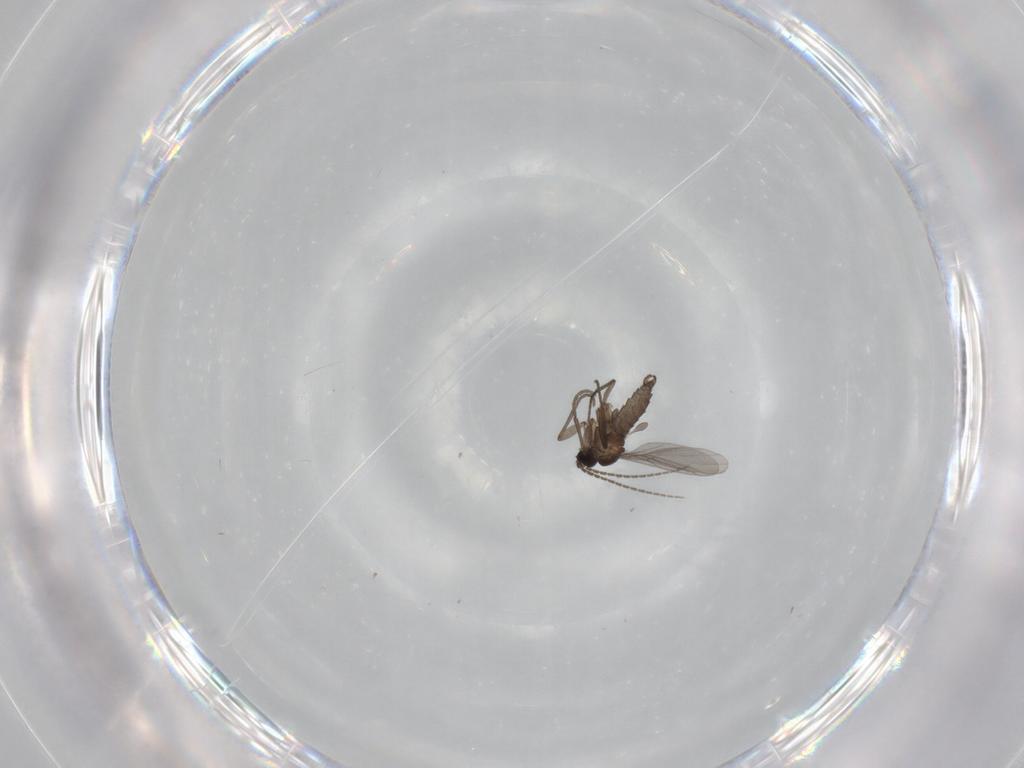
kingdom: Animalia
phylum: Arthropoda
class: Insecta
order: Diptera
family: Sciaridae
